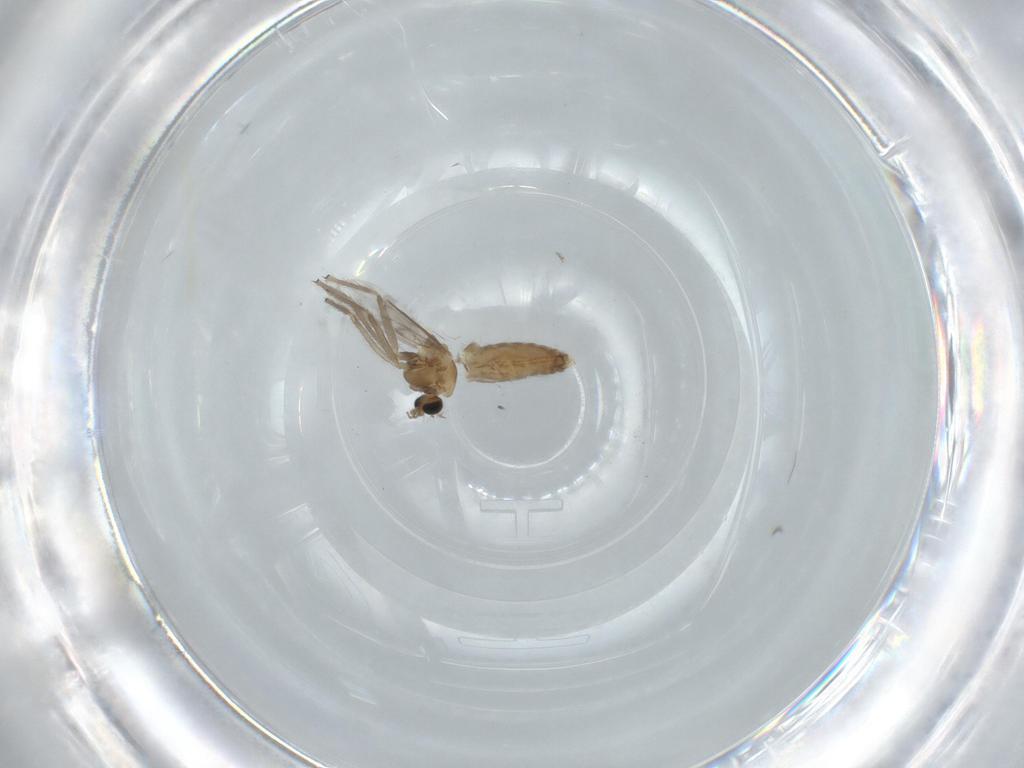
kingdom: Animalia
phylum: Arthropoda
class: Insecta
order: Diptera
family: Chironomidae
